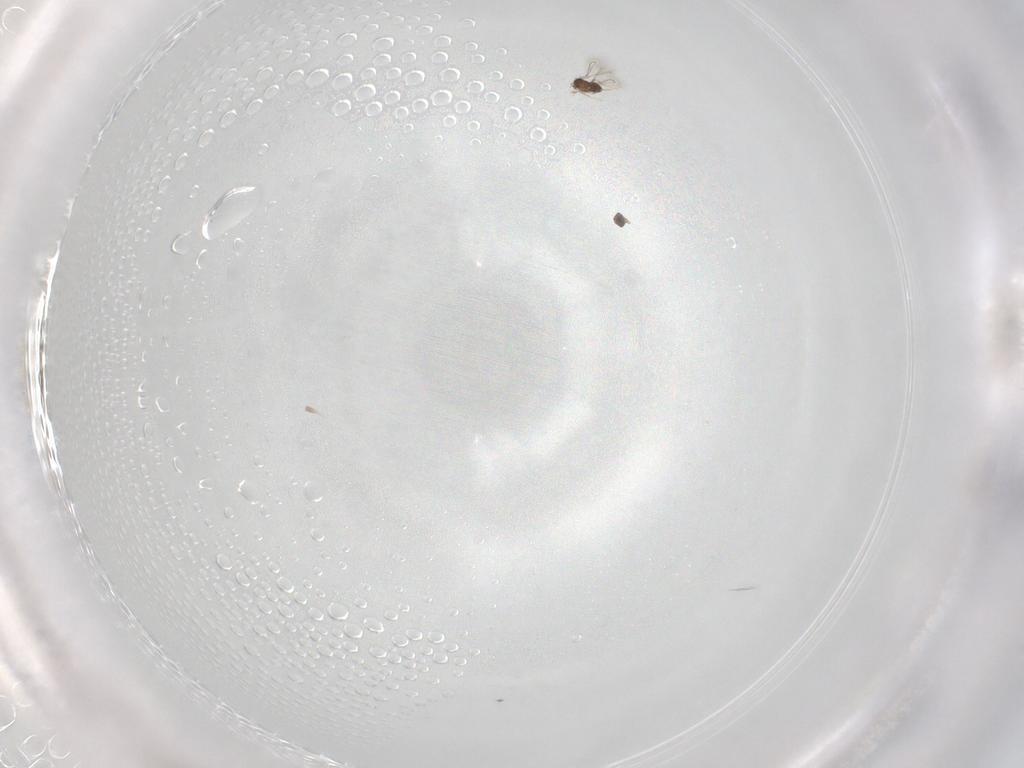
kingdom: Animalia
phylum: Arthropoda
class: Insecta
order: Hymenoptera
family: Mymaridae
